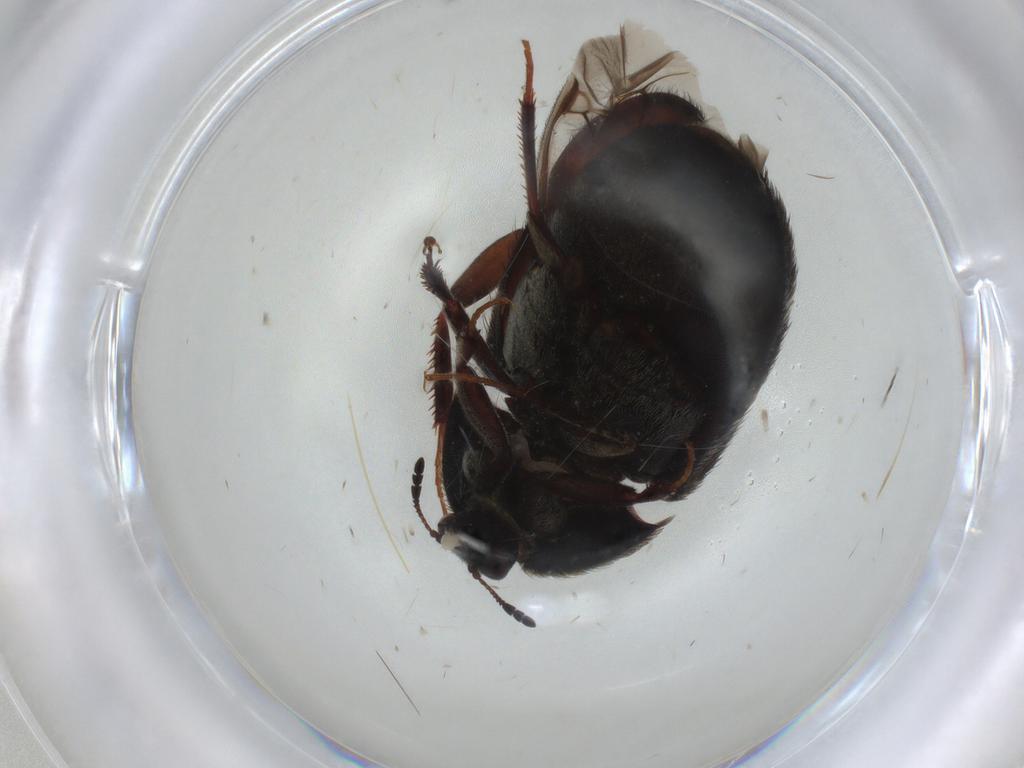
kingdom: Animalia
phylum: Arthropoda
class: Insecta
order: Coleoptera
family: Dermestidae
